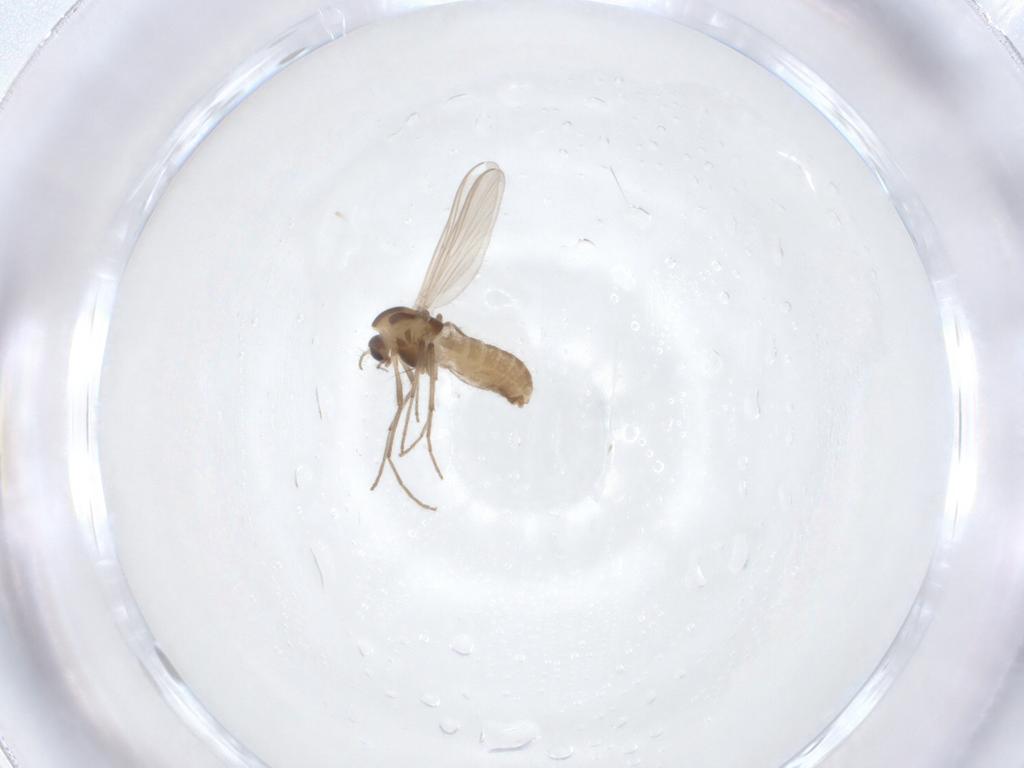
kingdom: Animalia
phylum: Arthropoda
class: Insecta
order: Diptera
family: Chironomidae
